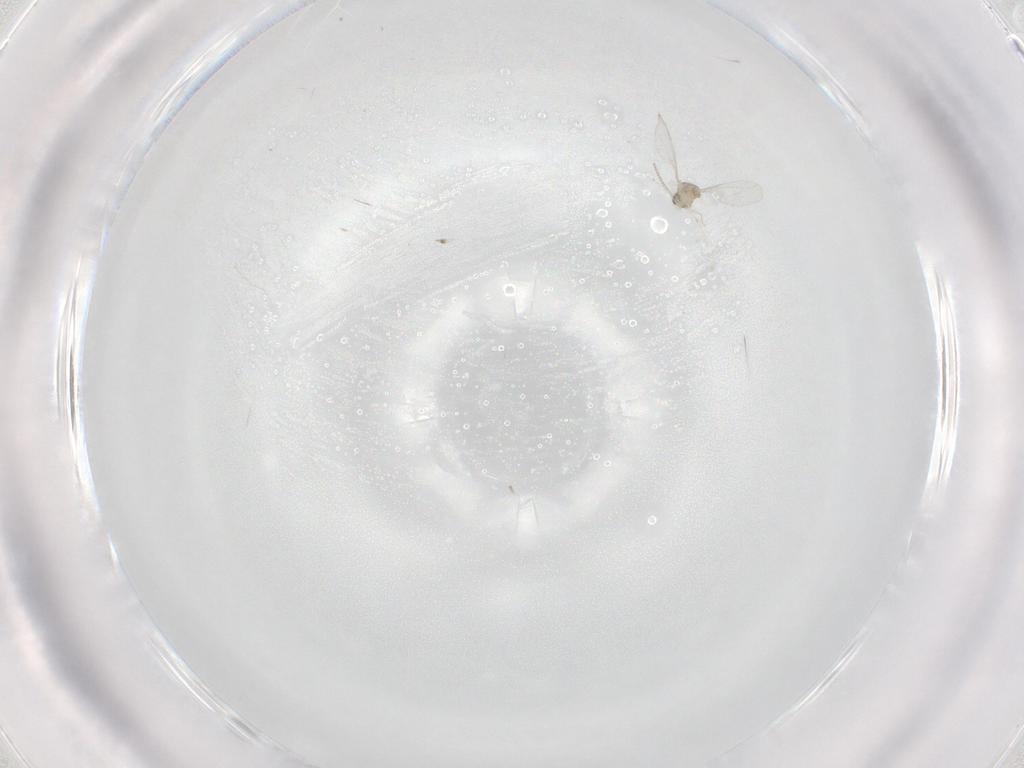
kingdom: Animalia
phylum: Arthropoda
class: Insecta
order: Diptera
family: Cecidomyiidae
